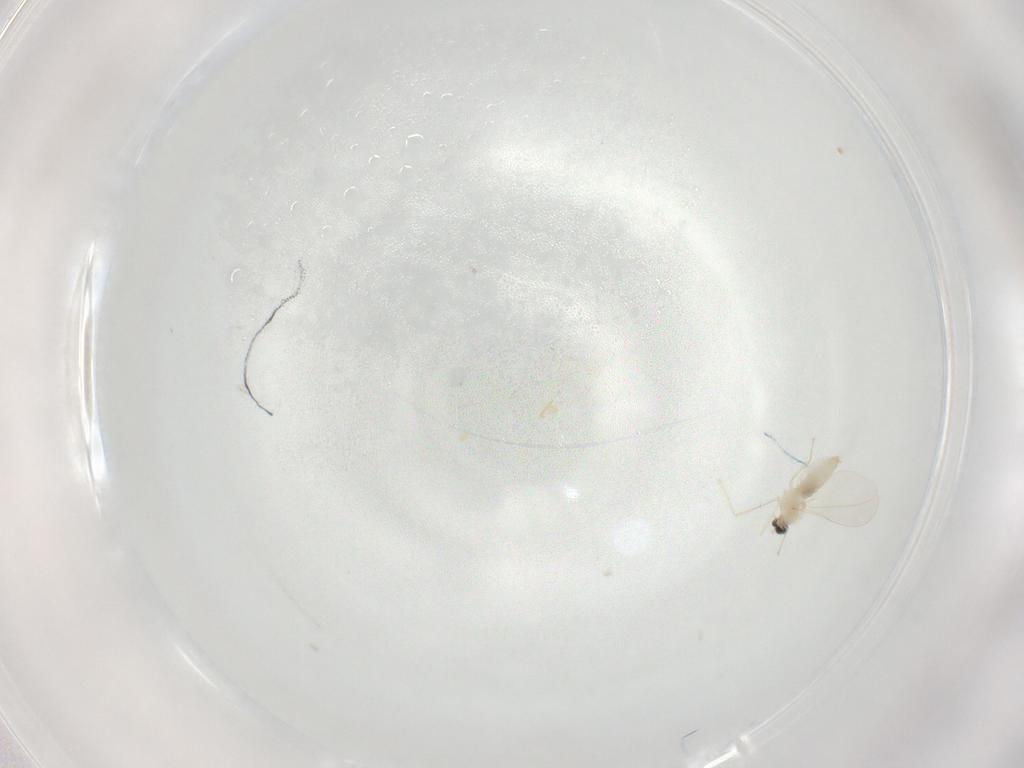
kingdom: Animalia
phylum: Arthropoda
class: Insecta
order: Diptera
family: Cecidomyiidae
